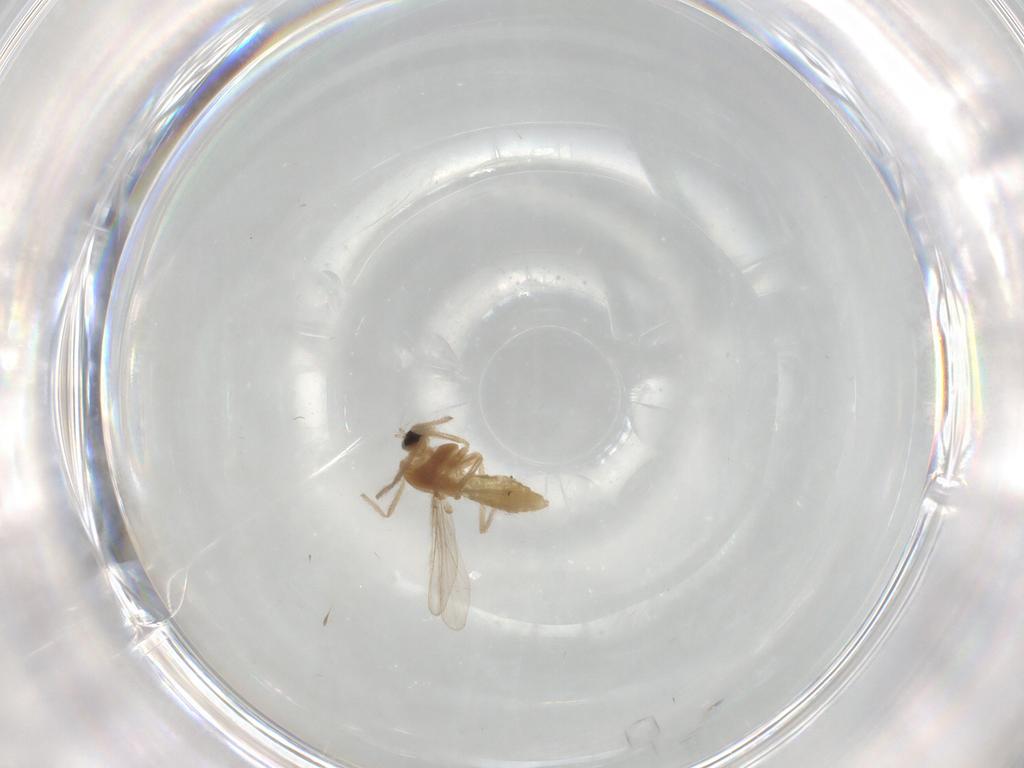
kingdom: Animalia
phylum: Arthropoda
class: Insecta
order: Diptera
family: Chironomidae
